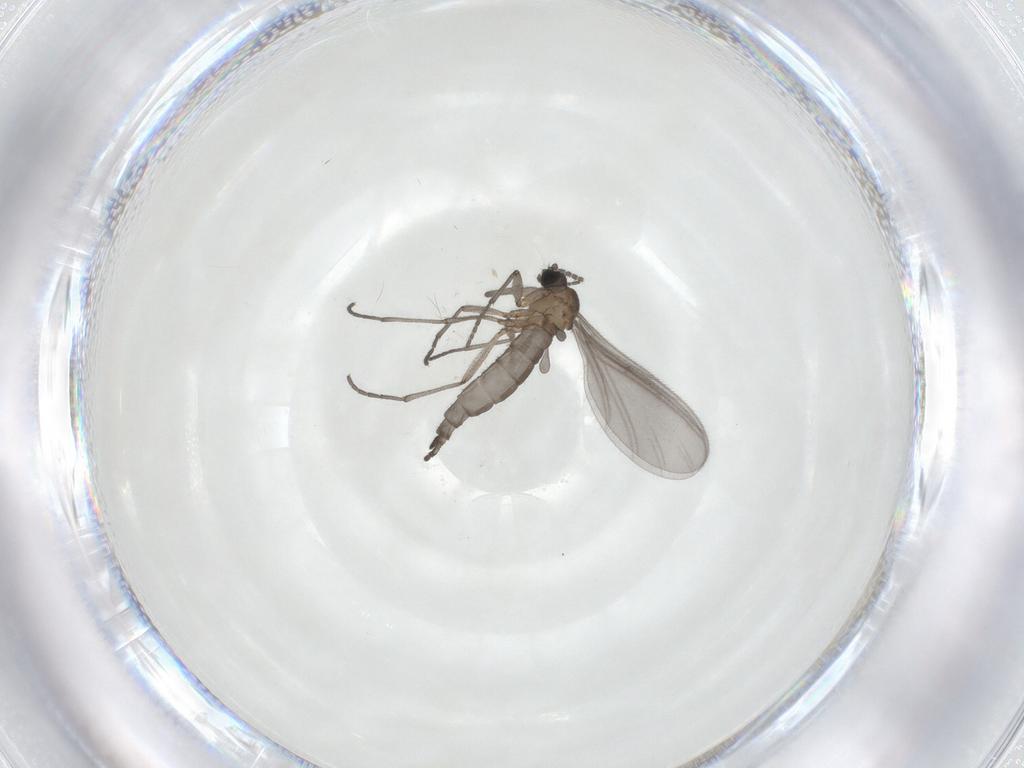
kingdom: Animalia
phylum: Arthropoda
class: Insecta
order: Diptera
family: Sciaridae
